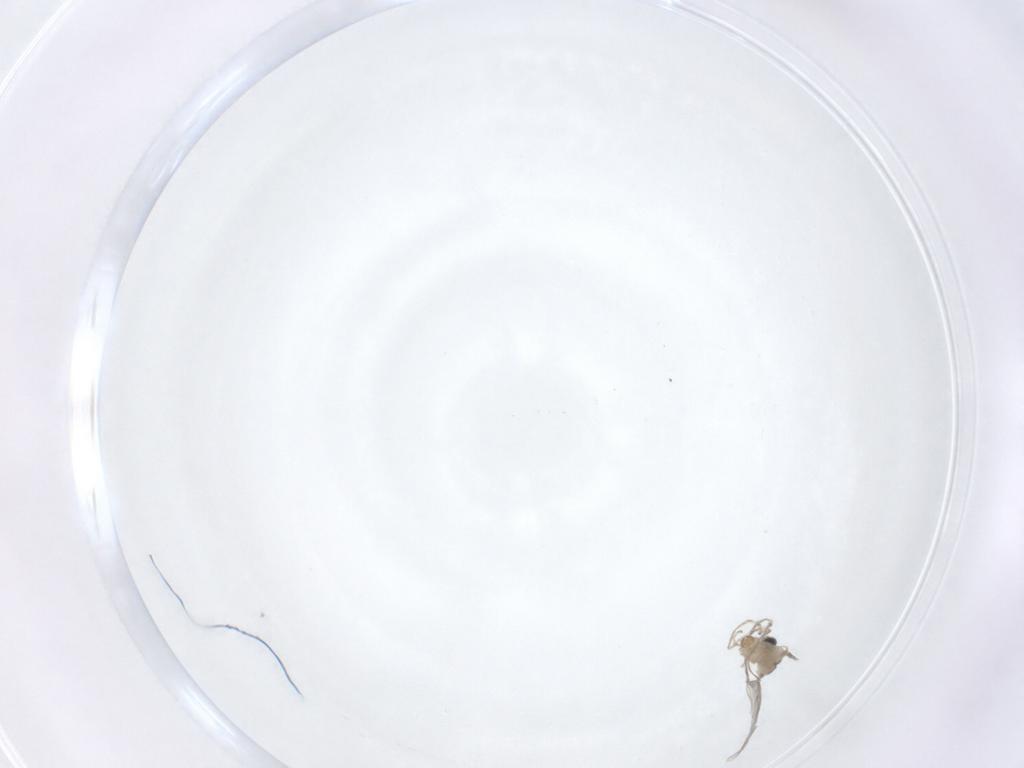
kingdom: Animalia
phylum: Arthropoda
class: Insecta
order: Diptera
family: Cecidomyiidae
